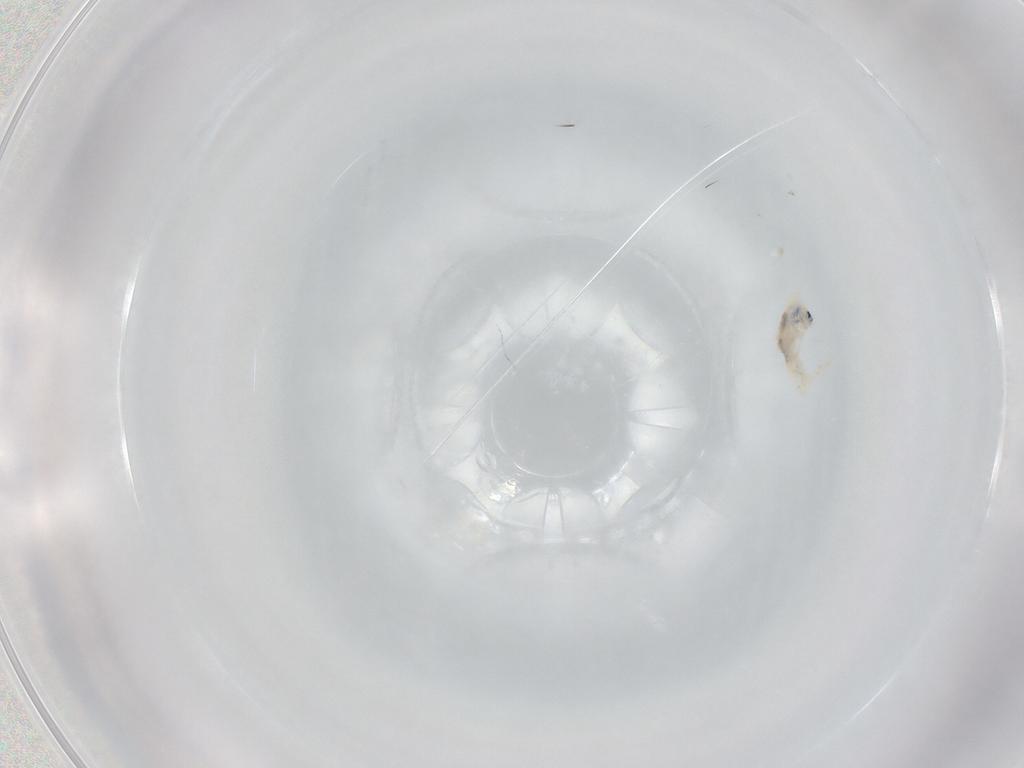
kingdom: Animalia
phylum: Arthropoda
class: Collembola
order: Entomobryomorpha
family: Entomobryidae
